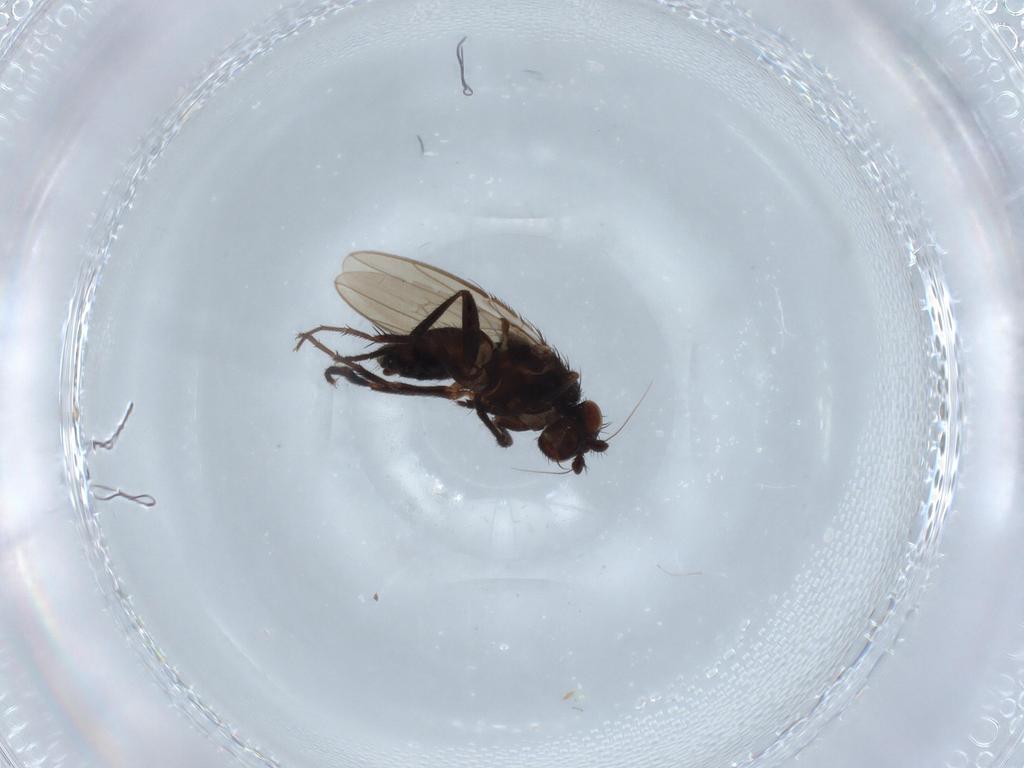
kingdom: Animalia
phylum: Arthropoda
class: Insecta
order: Diptera
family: Sphaeroceridae
